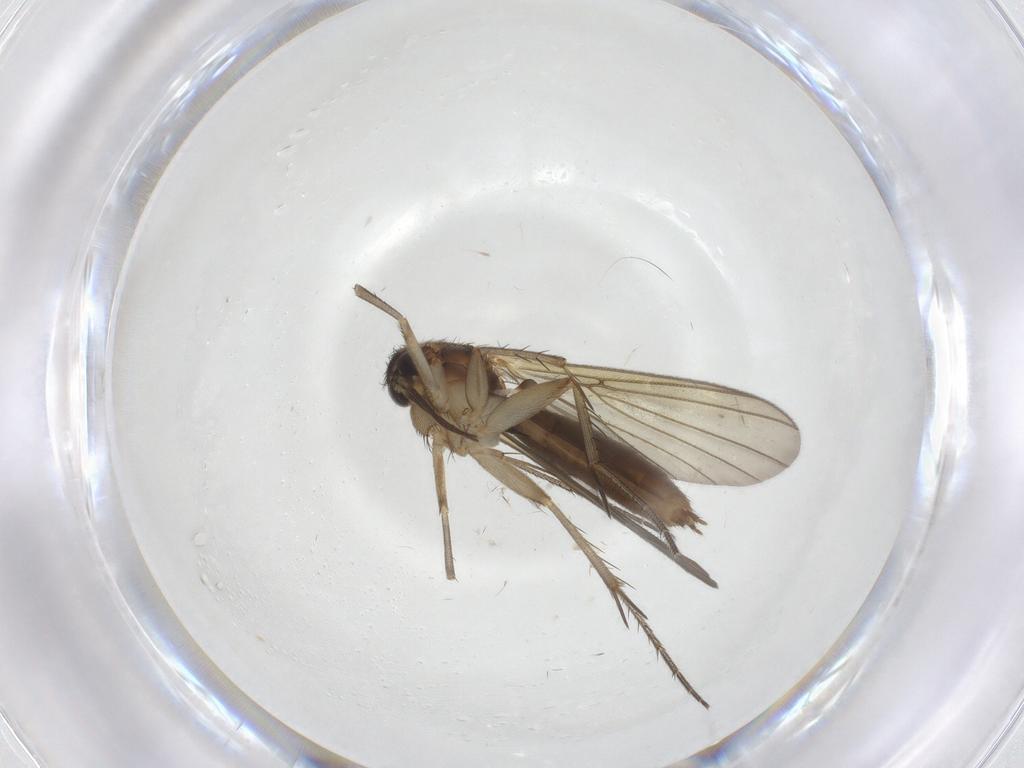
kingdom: Animalia
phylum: Arthropoda
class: Insecta
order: Diptera
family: Mycetophilidae
